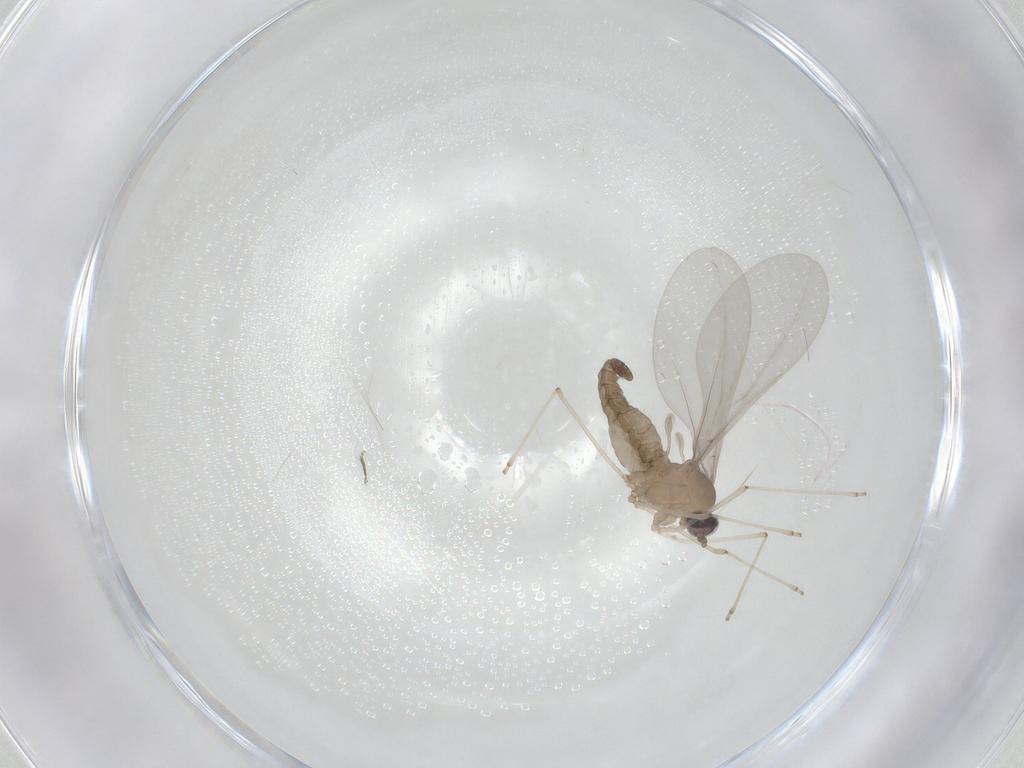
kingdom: Animalia
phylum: Arthropoda
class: Insecta
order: Diptera
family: Cecidomyiidae
